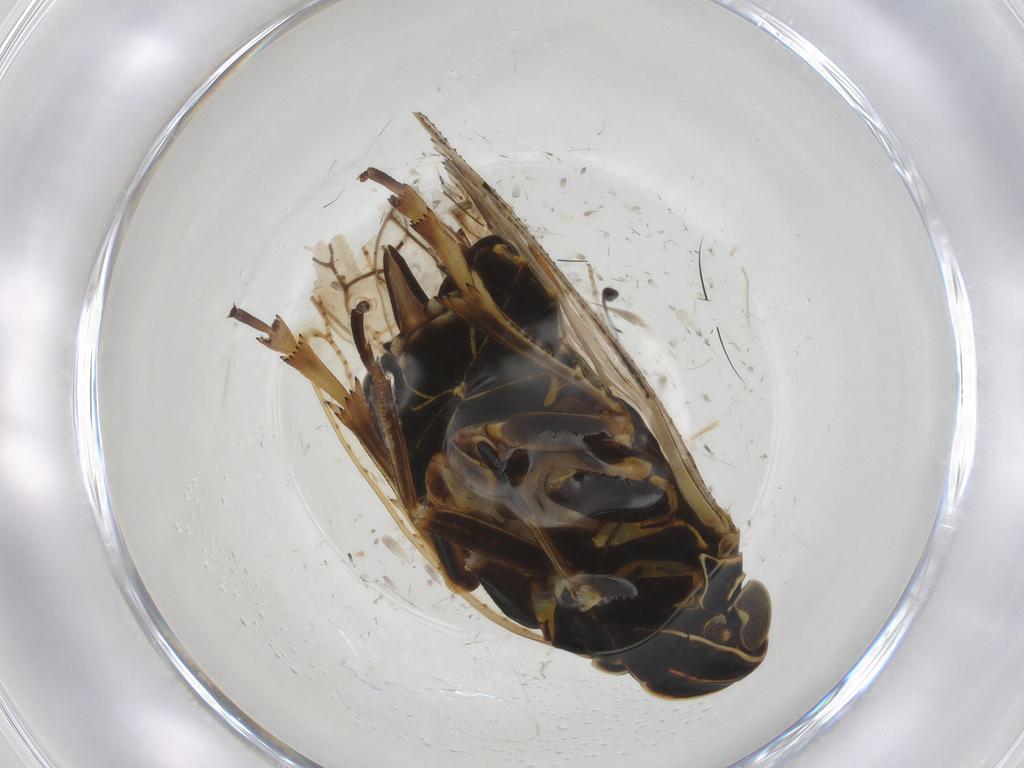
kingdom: Animalia
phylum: Arthropoda
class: Insecta
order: Hemiptera
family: Cixiidae
